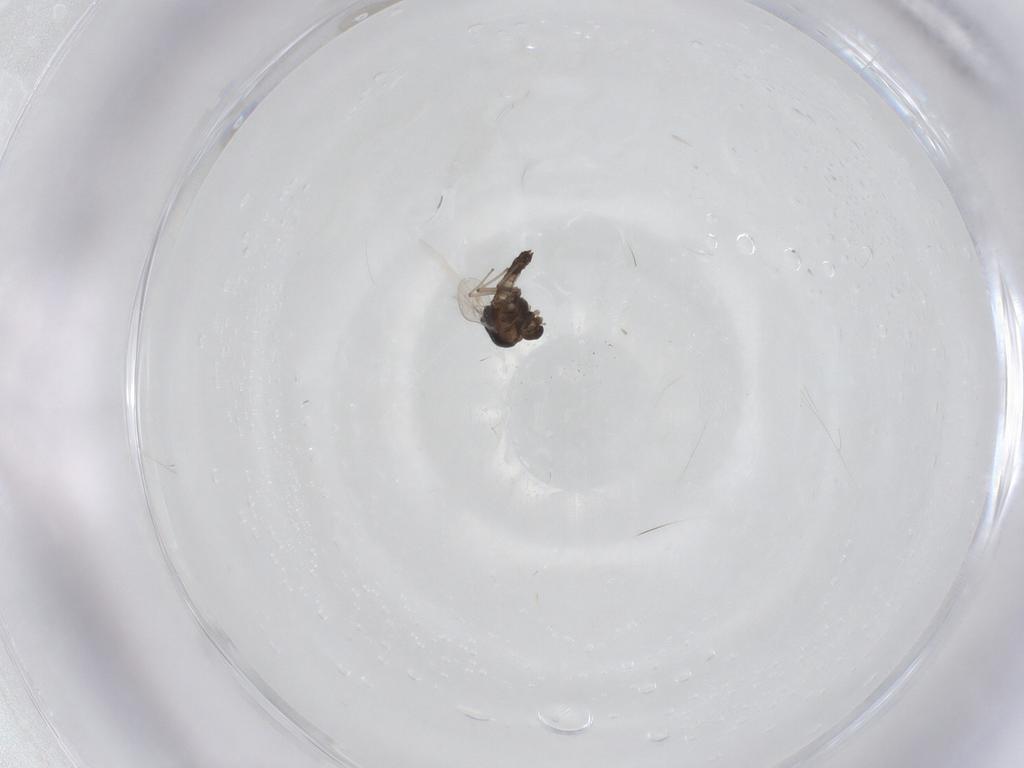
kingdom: Animalia
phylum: Arthropoda
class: Insecta
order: Diptera
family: Chironomidae
